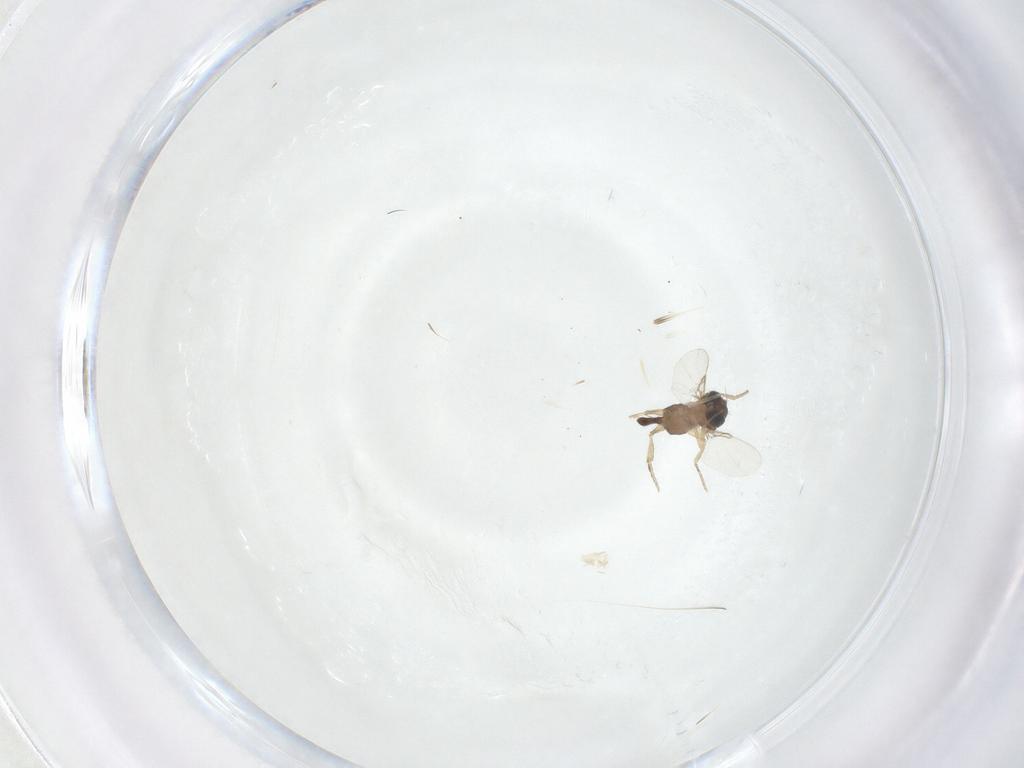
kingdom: Animalia
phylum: Arthropoda
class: Insecta
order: Diptera
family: Phoridae
